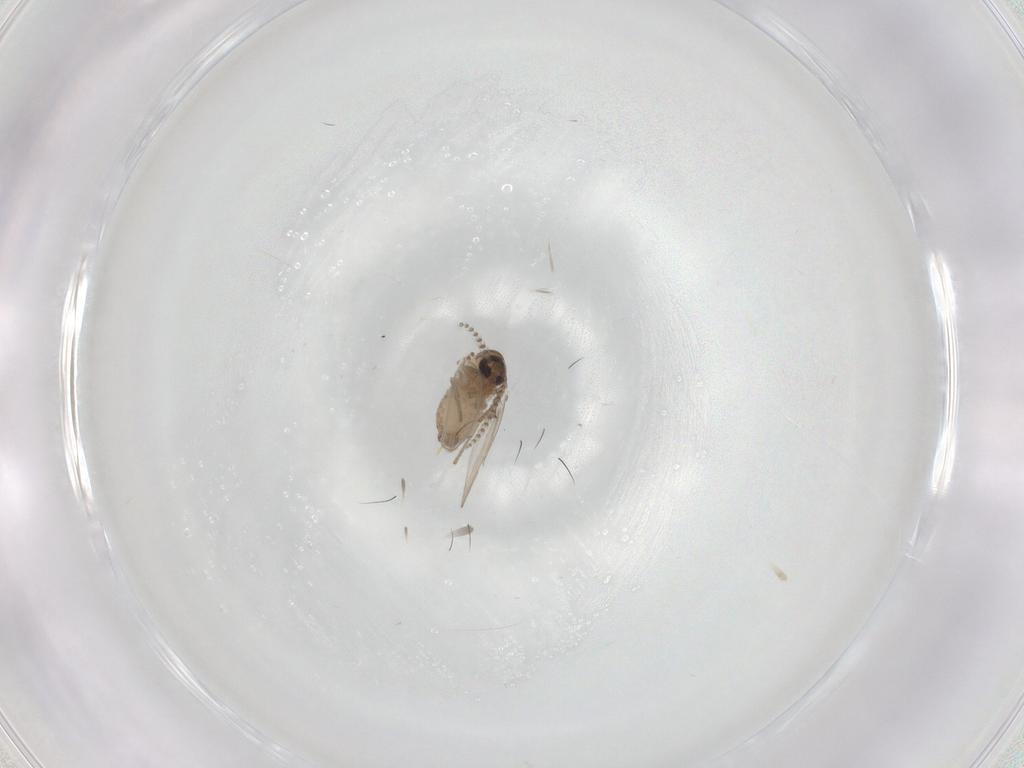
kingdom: Animalia
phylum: Arthropoda
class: Insecta
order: Diptera
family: Psychodidae
